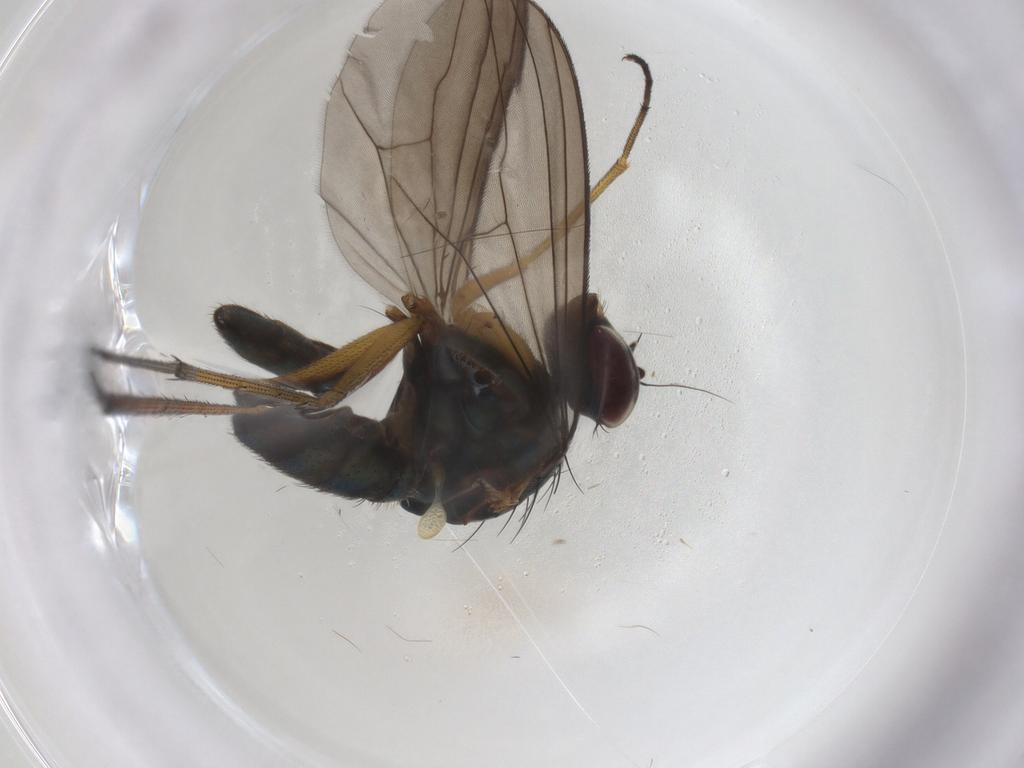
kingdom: Animalia
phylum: Arthropoda
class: Insecta
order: Diptera
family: Dolichopodidae
